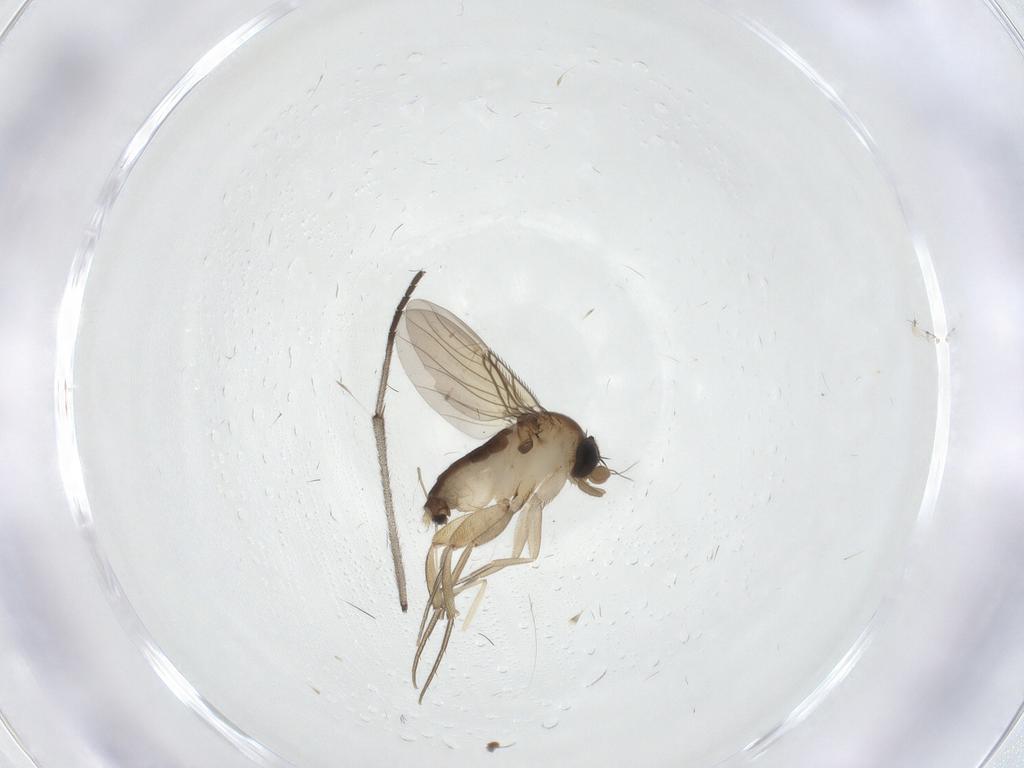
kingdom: Animalia
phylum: Arthropoda
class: Insecta
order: Diptera
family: Phoridae
